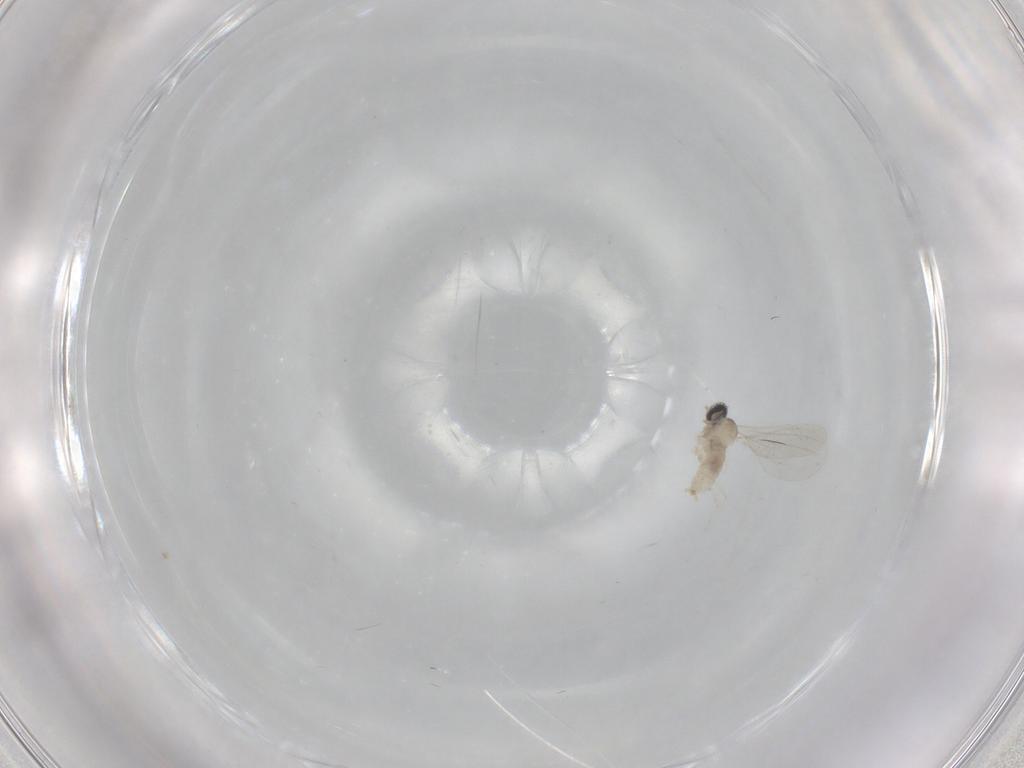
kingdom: Animalia
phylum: Arthropoda
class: Insecta
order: Diptera
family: Cecidomyiidae
